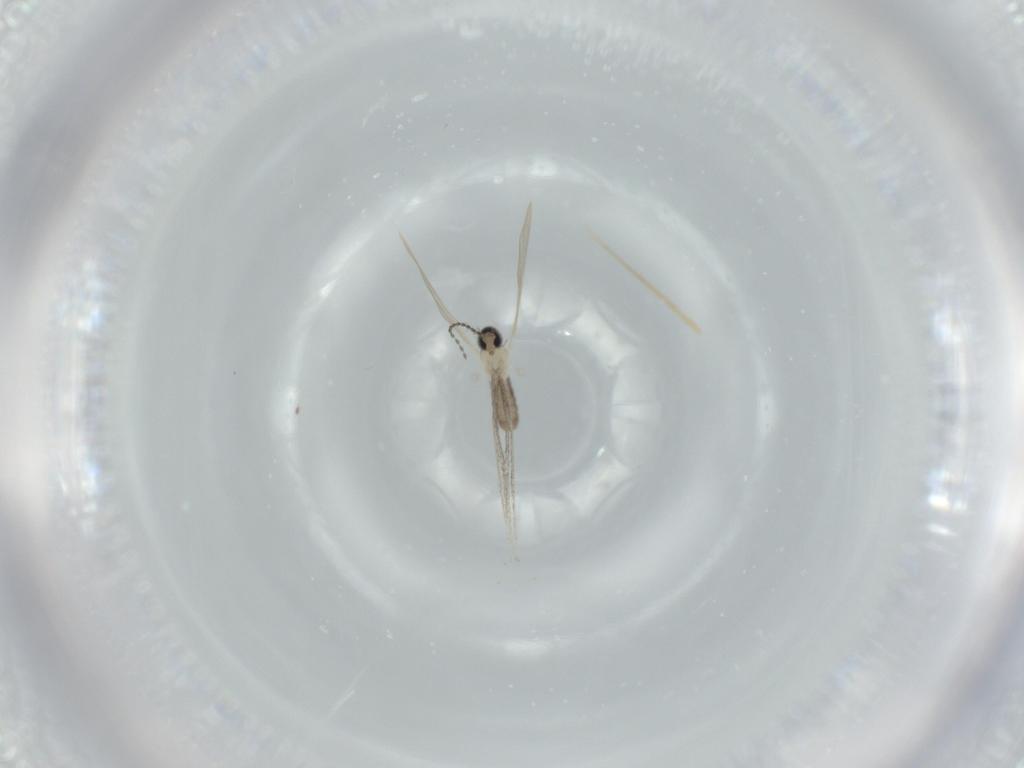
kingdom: Animalia
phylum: Arthropoda
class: Insecta
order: Diptera
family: Cecidomyiidae
